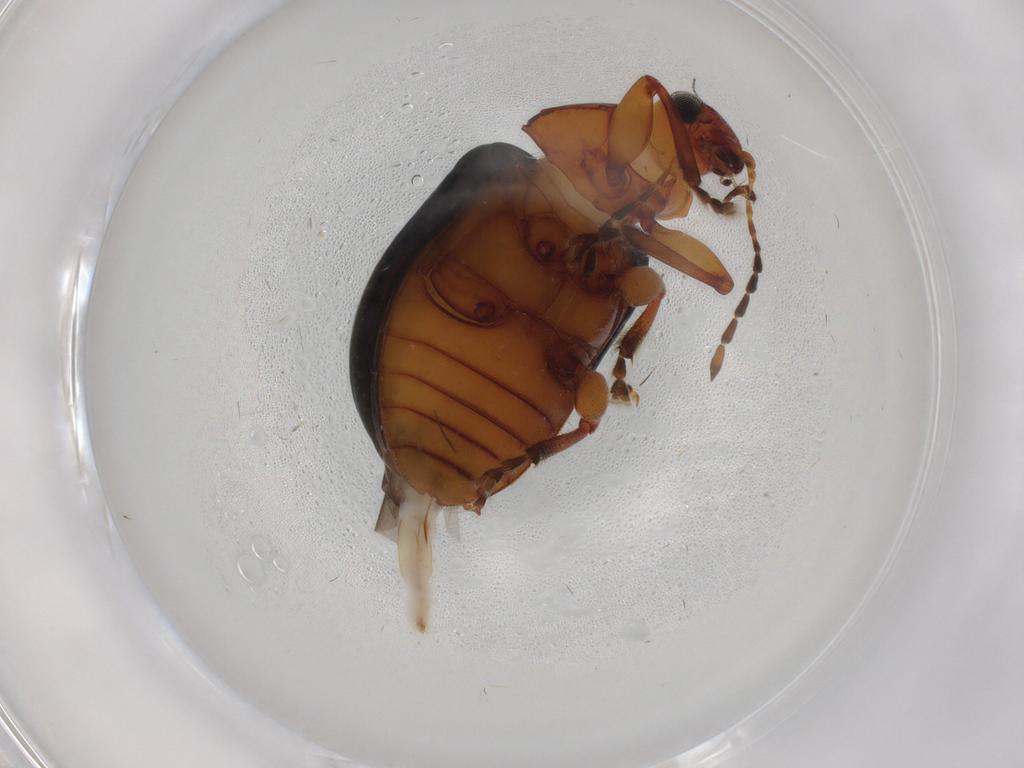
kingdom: Animalia
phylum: Arthropoda
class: Insecta
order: Coleoptera
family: Chrysomelidae
